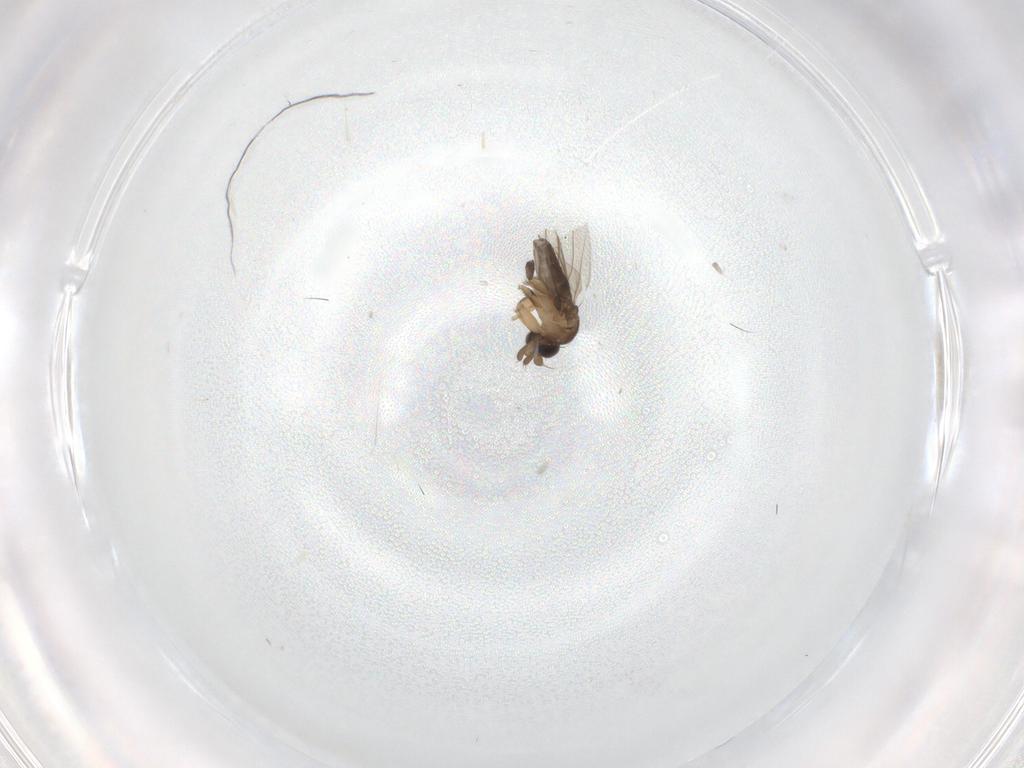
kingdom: Animalia
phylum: Arthropoda
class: Insecta
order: Diptera
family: Phoridae
